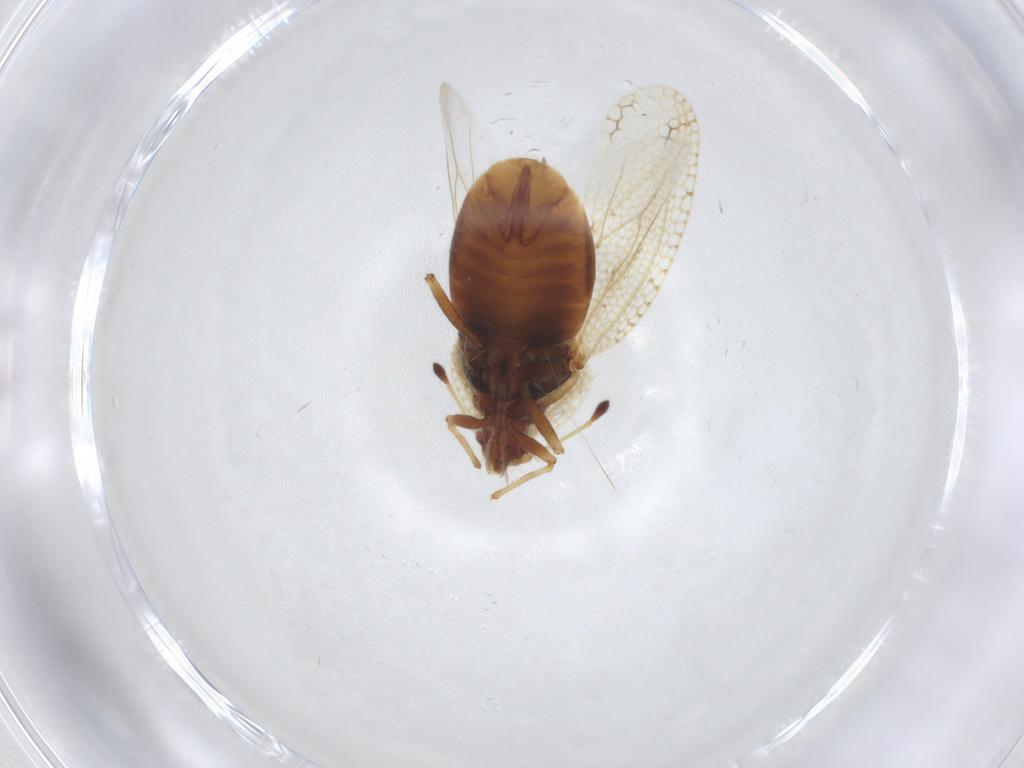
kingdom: Animalia
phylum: Arthropoda
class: Insecta
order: Hemiptera
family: Miridae
